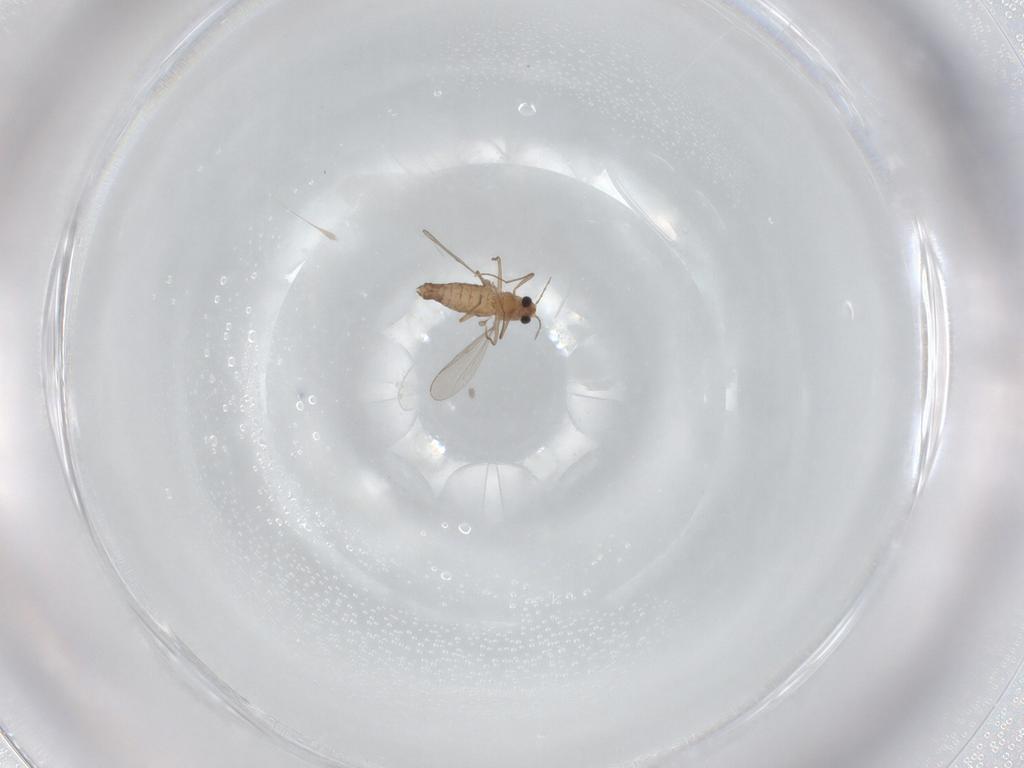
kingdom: Animalia
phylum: Arthropoda
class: Insecta
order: Diptera
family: Chironomidae
